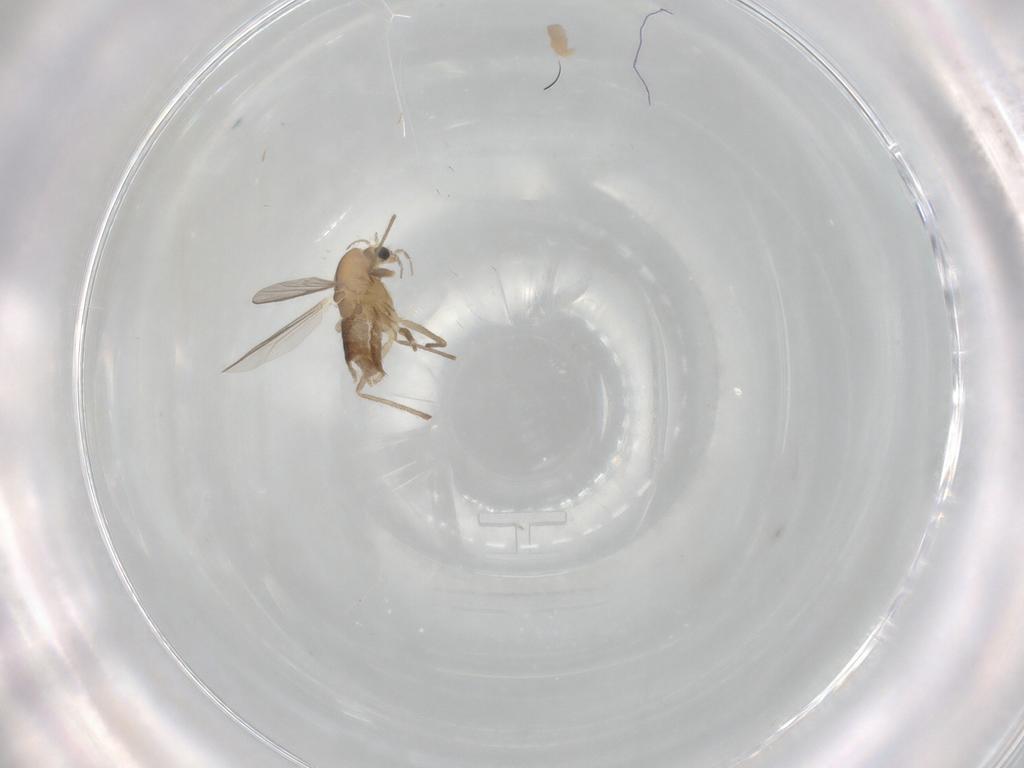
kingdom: Animalia
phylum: Arthropoda
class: Insecta
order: Diptera
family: Chironomidae
